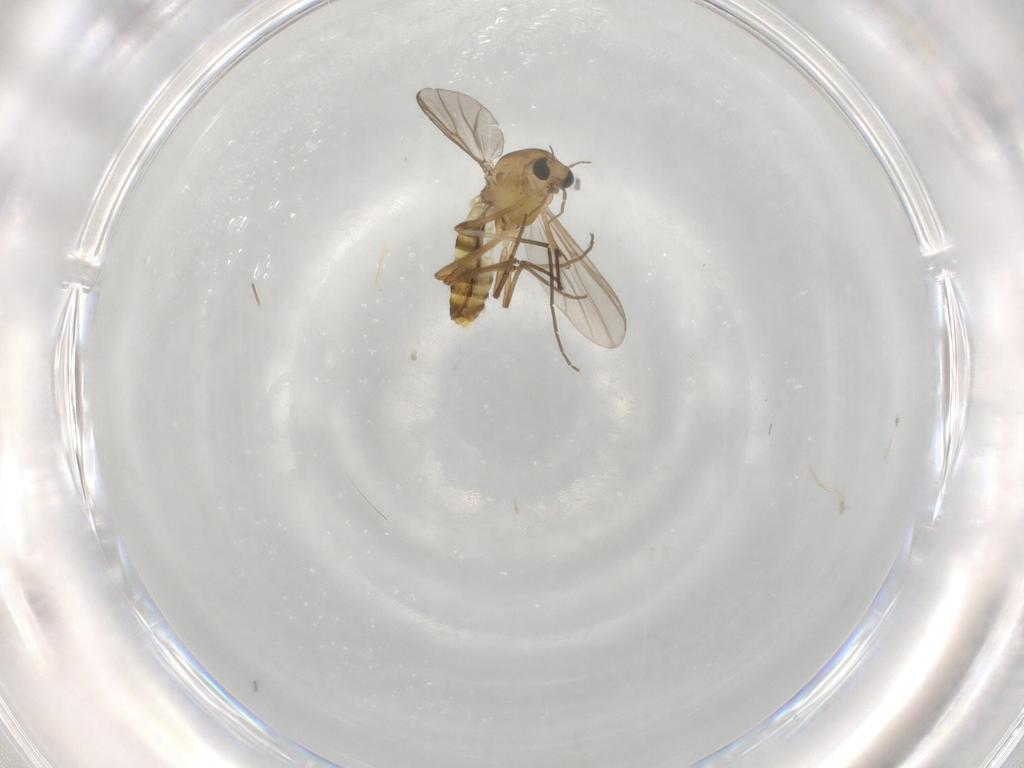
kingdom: Animalia
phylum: Arthropoda
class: Insecta
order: Diptera
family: Chironomidae
